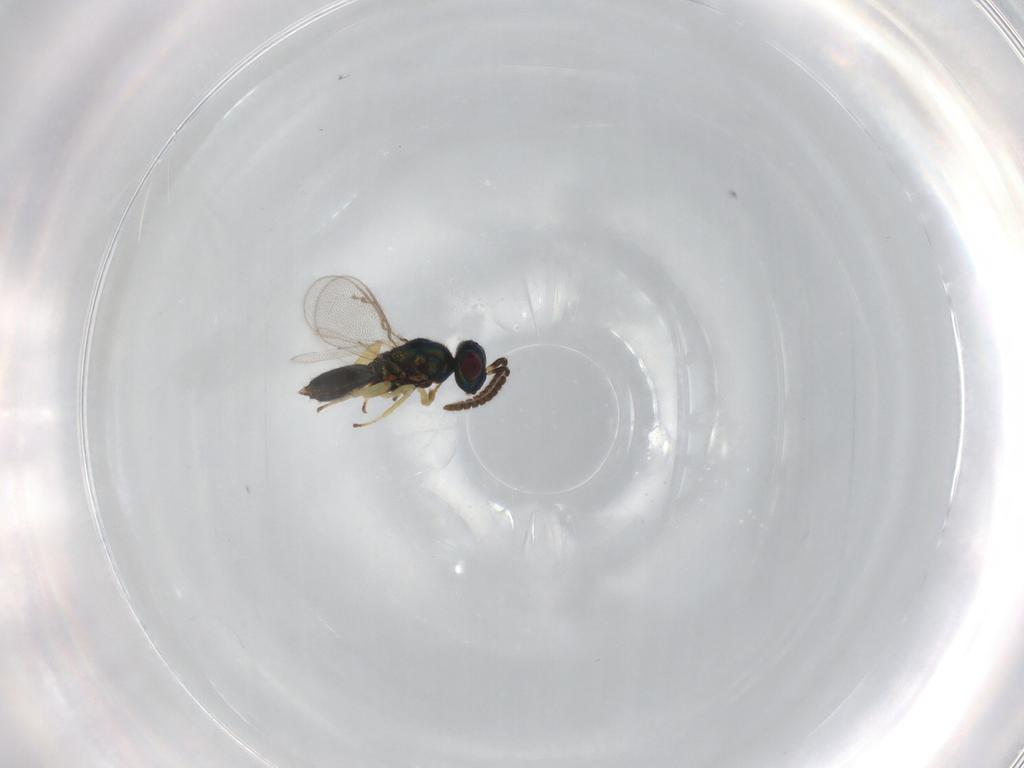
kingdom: Animalia
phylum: Arthropoda
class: Insecta
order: Hymenoptera
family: Eupelmidae
